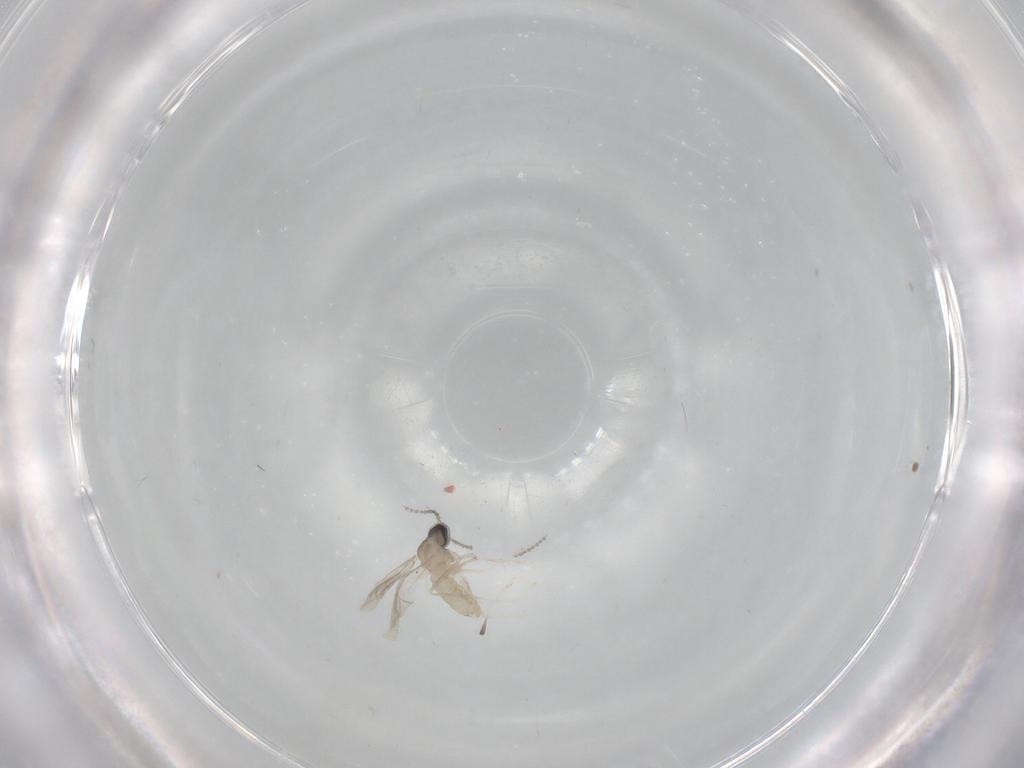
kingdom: Animalia
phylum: Arthropoda
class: Insecta
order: Diptera
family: Cecidomyiidae
